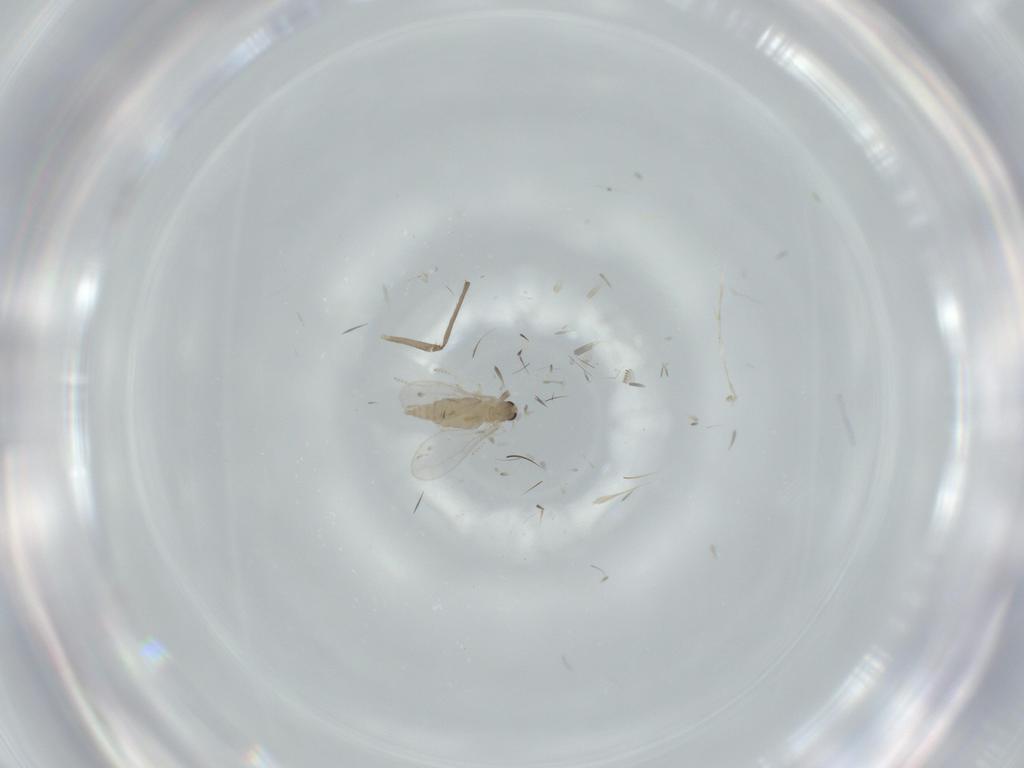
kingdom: Animalia
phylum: Arthropoda
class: Insecta
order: Diptera
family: Cecidomyiidae
